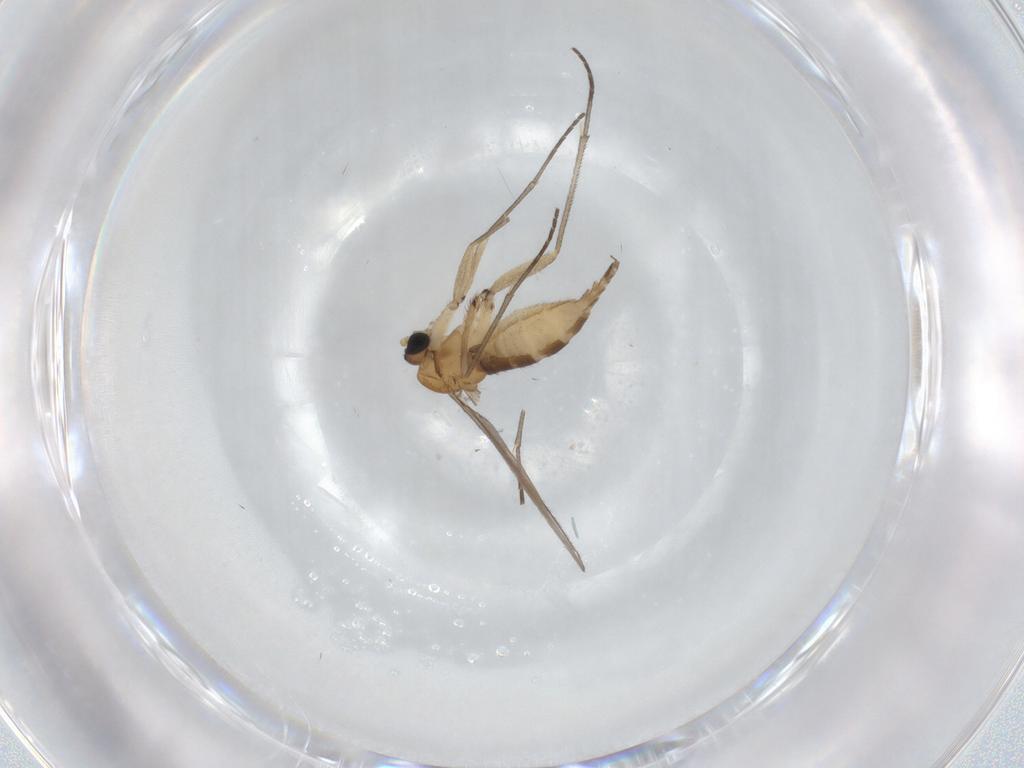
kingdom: Animalia
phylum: Arthropoda
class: Insecta
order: Diptera
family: Sciaridae
